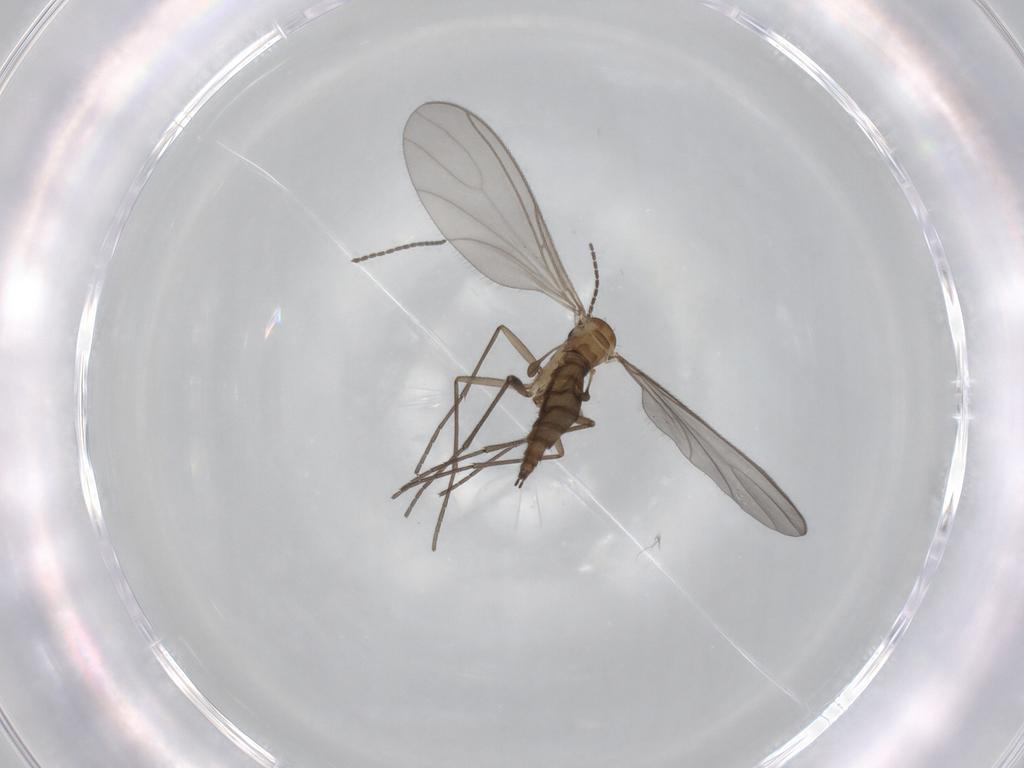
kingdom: Animalia
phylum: Arthropoda
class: Insecta
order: Diptera
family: Sciaridae
